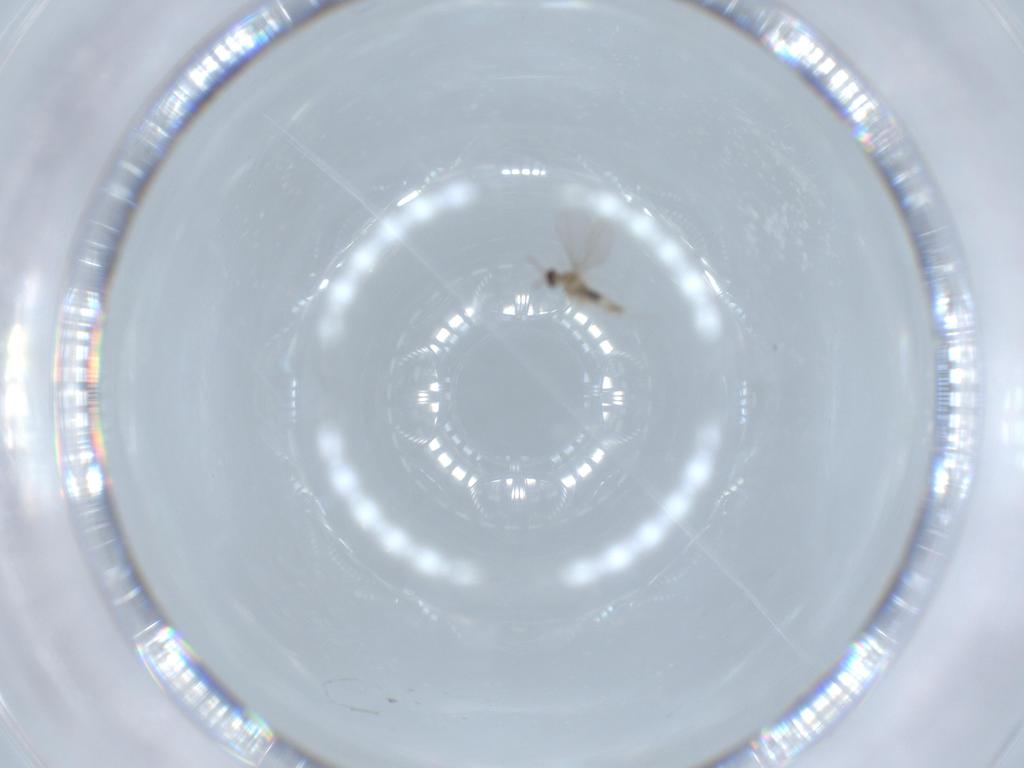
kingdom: Animalia
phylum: Arthropoda
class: Insecta
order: Diptera
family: Cecidomyiidae
